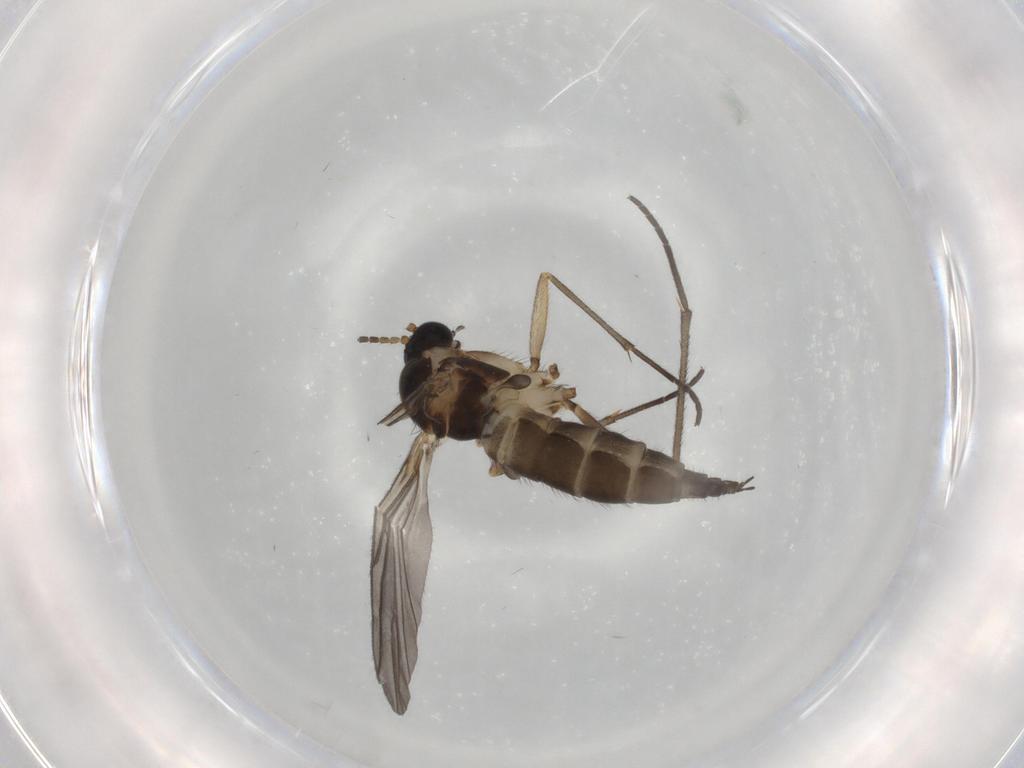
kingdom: Animalia
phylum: Arthropoda
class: Insecta
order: Diptera
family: Sciaridae
